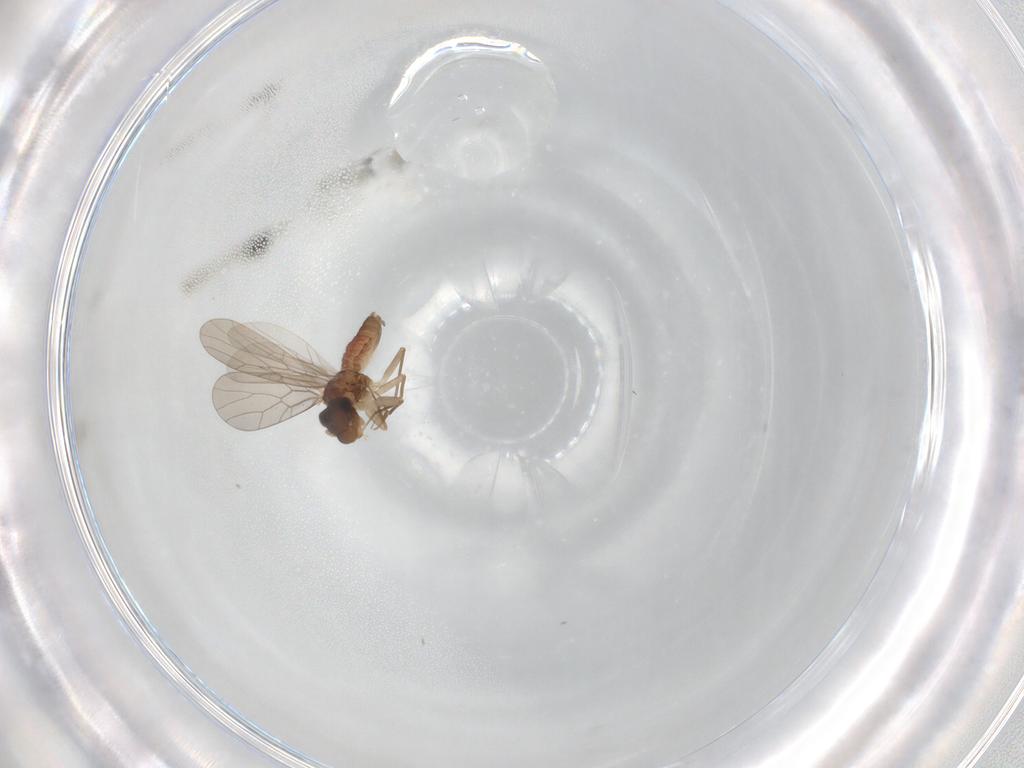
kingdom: Animalia
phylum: Arthropoda
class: Insecta
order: Psocodea
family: Lepidopsocidae
